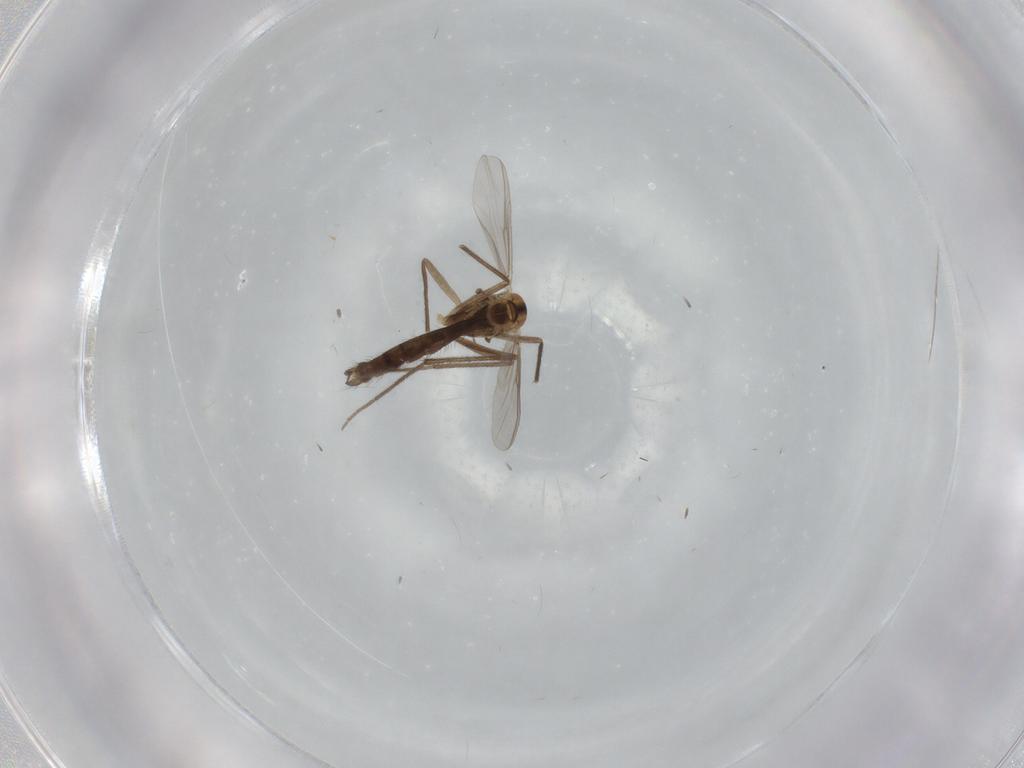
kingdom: Animalia
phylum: Arthropoda
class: Insecta
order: Diptera
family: Chironomidae
